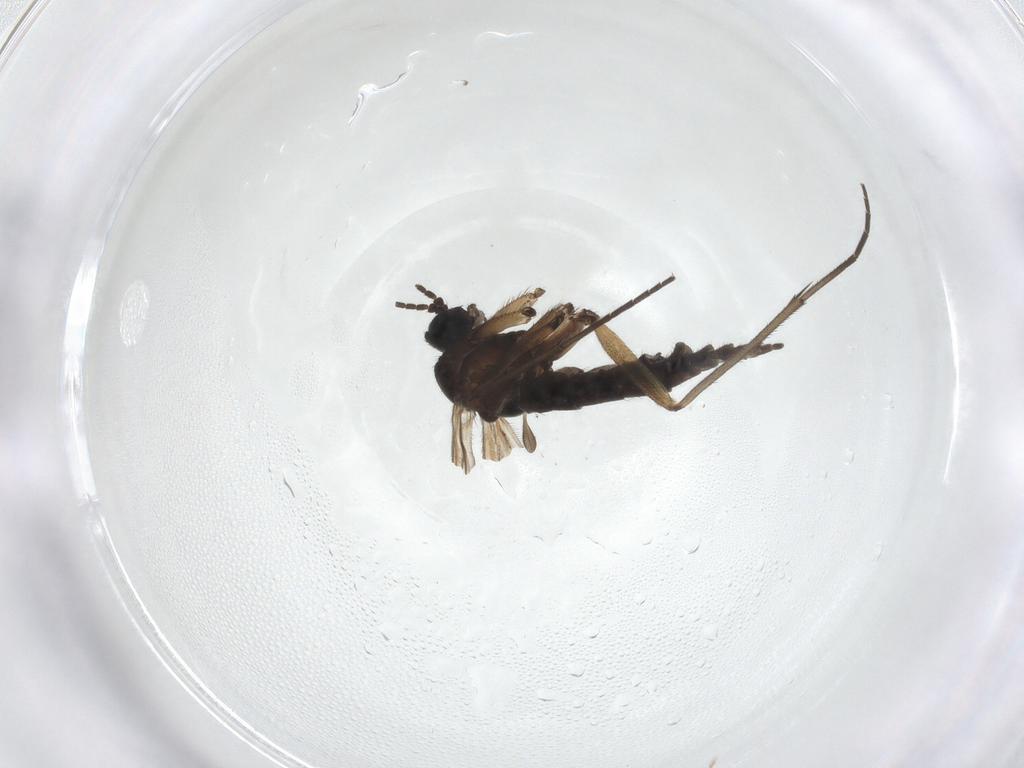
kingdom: Animalia
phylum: Arthropoda
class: Insecta
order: Diptera
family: Sciaridae
